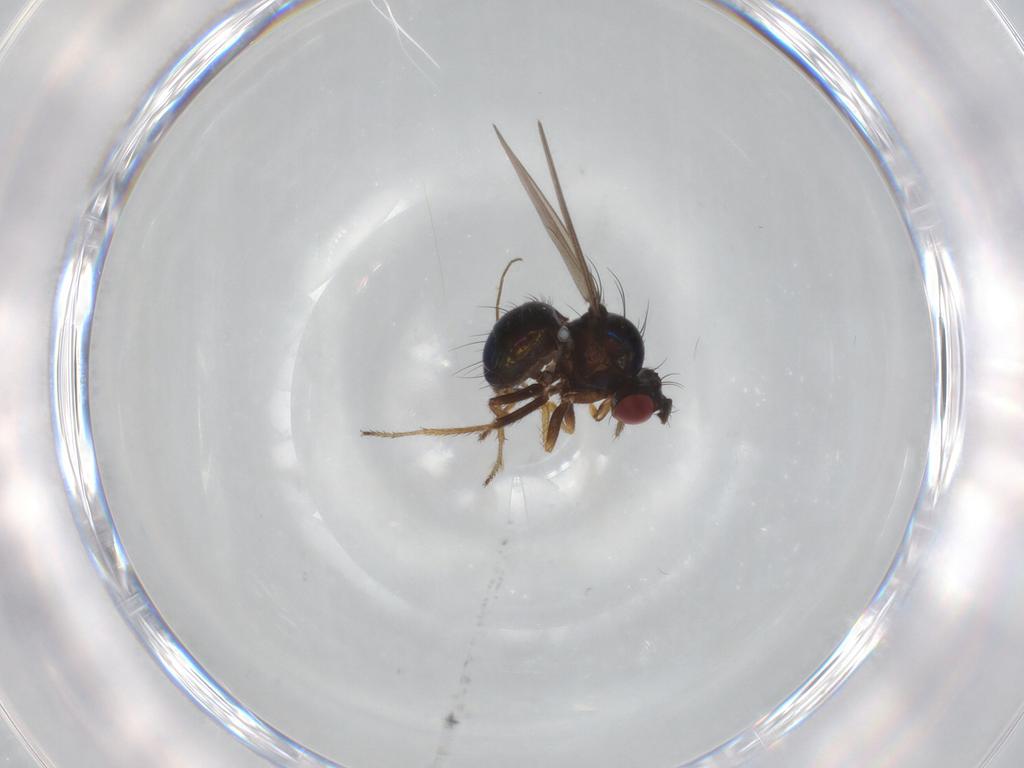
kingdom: Animalia
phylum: Arthropoda
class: Insecta
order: Diptera
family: Ephydridae
